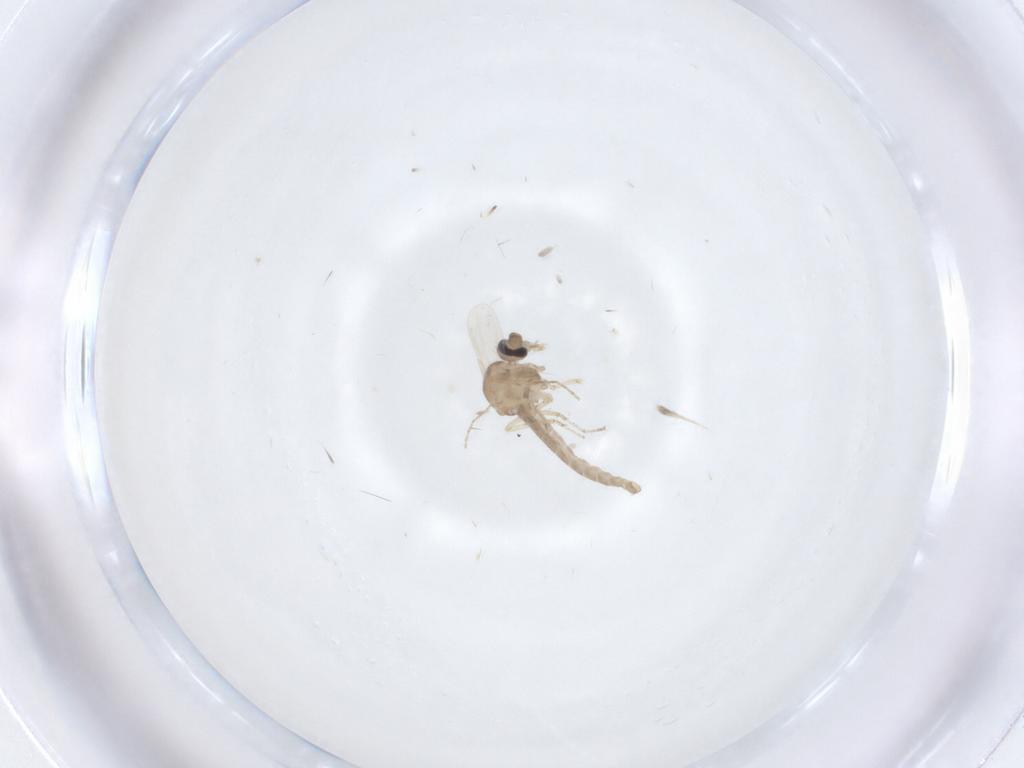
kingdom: Animalia
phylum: Arthropoda
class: Insecta
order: Diptera
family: Ceratopogonidae
